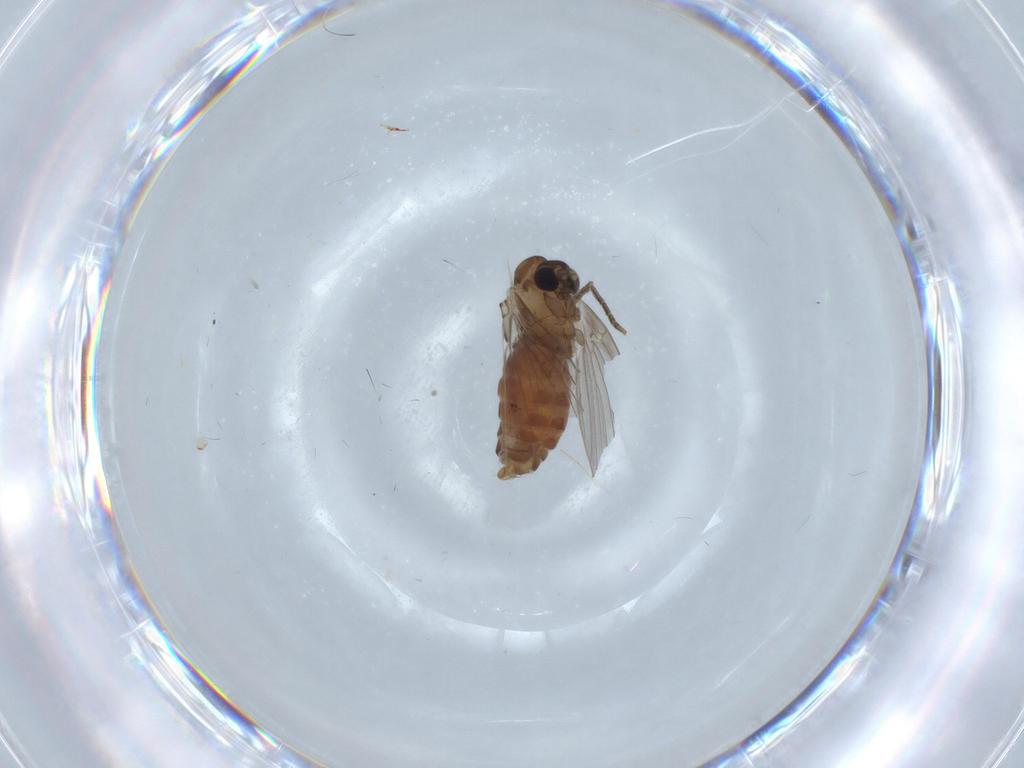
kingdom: Animalia
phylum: Arthropoda
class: Insecta
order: Diptera
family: Psychodidae
